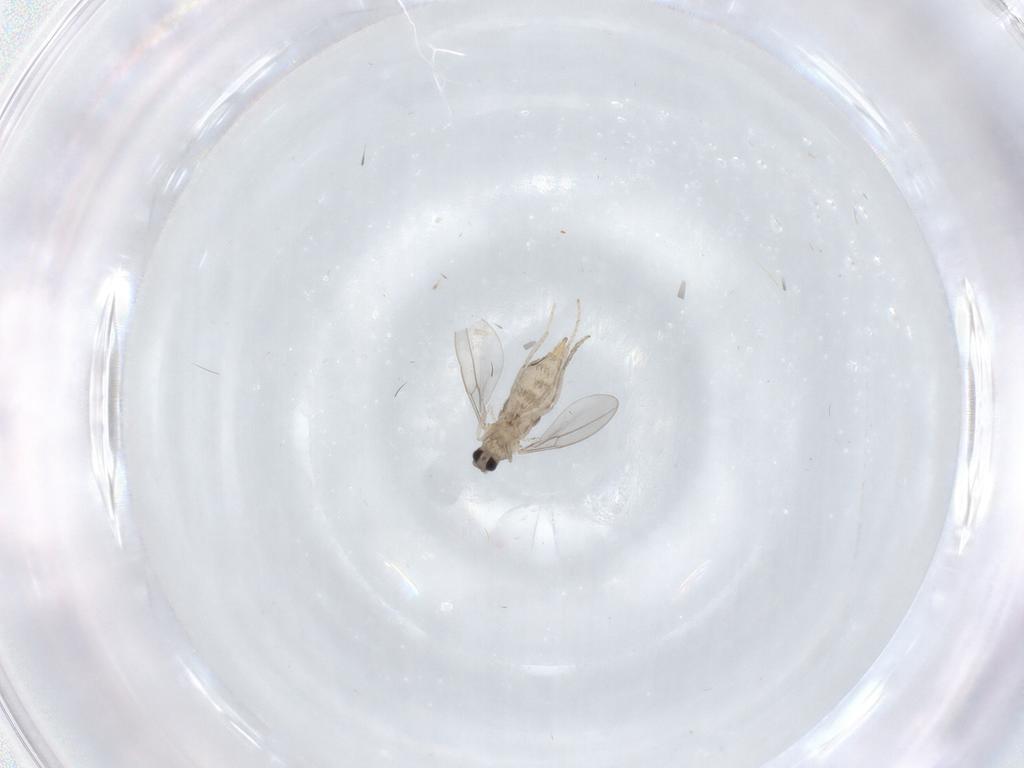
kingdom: Animalia
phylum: Arthropoda
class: Insecta
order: Diptera
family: Cecidomyiidae
